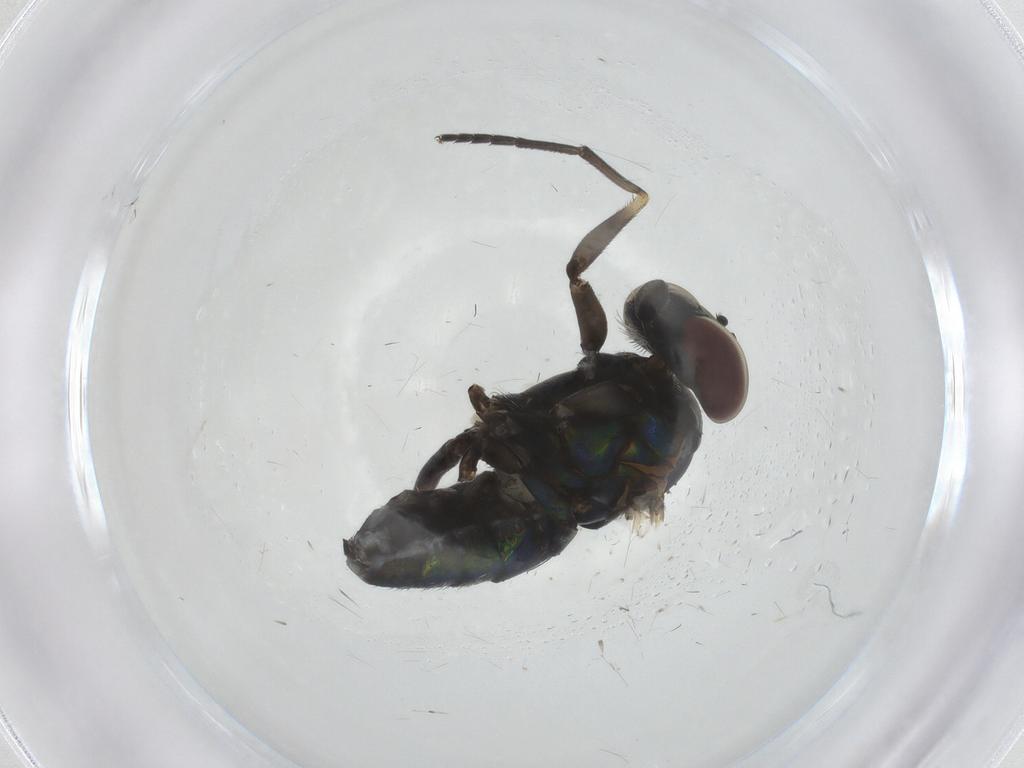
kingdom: Animalia
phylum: Arthropoda
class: Insecta
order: Diptera
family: Dolichopodidae
